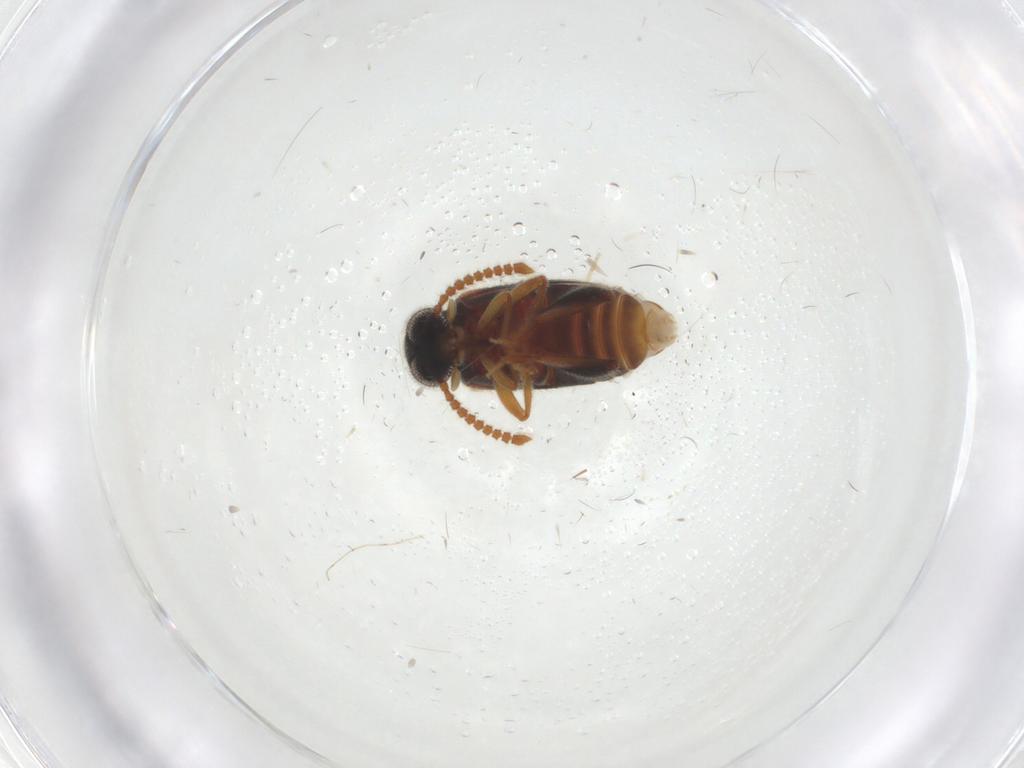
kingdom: Animalia
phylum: Arthropoda
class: Insecta
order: Coleoptera
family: Aderidae
